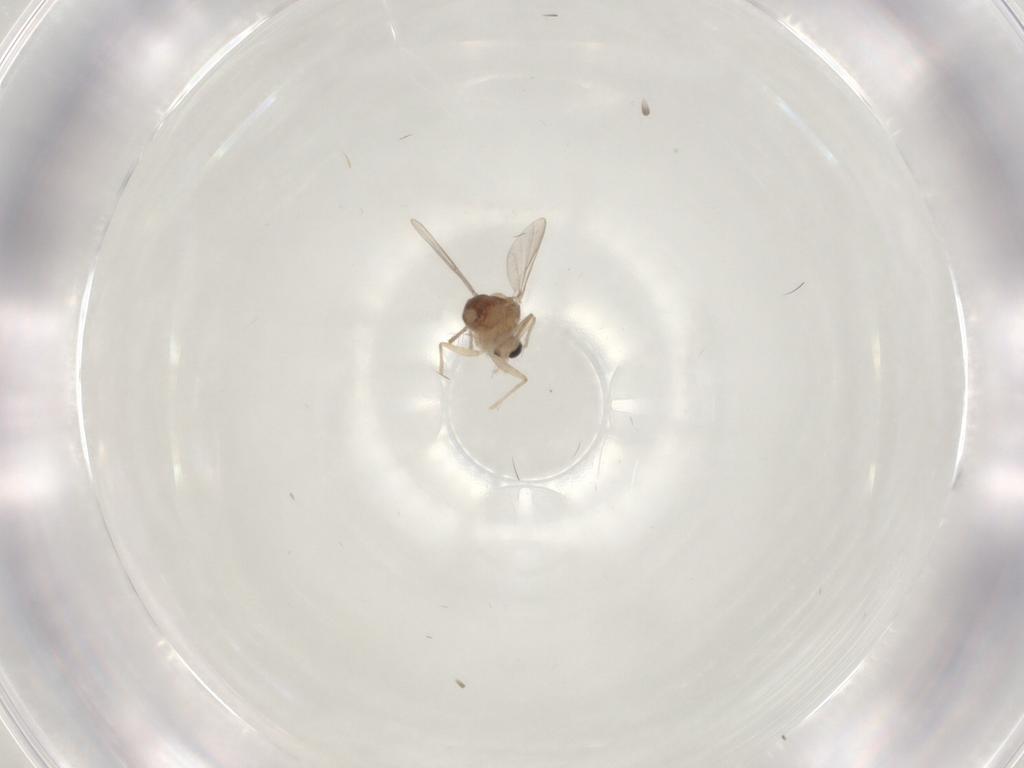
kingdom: Animalia
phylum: Arthropoda
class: Insecta
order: Diptera
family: Chironomidae
